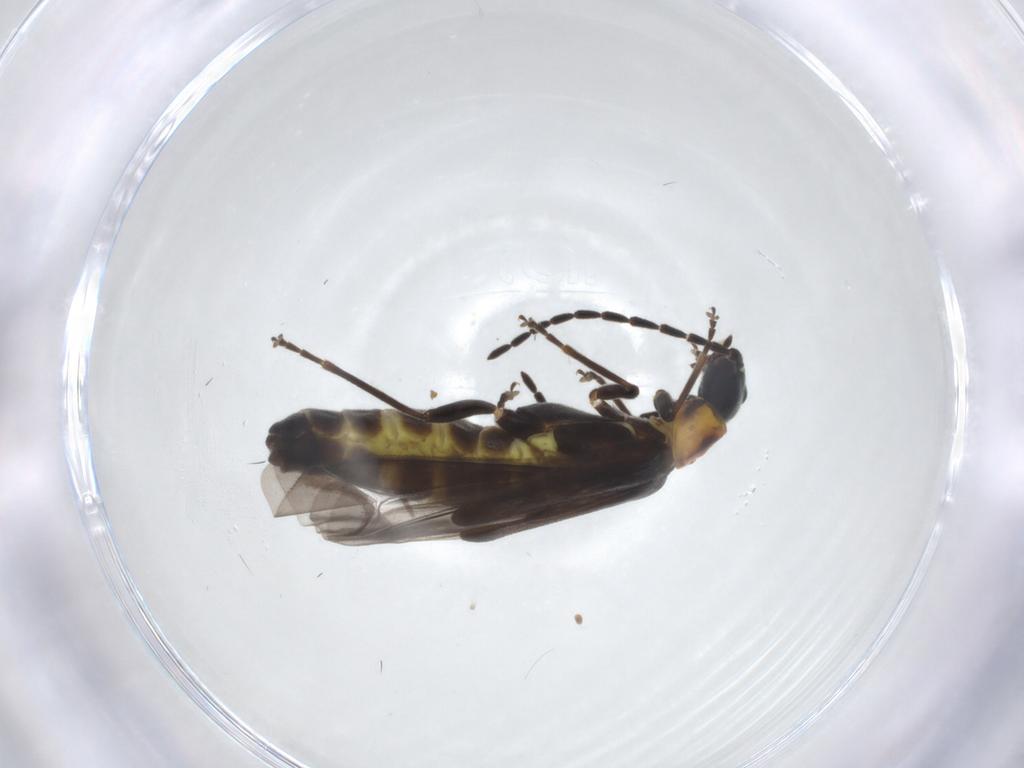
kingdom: Animalia
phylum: Arthropoda
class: Insecta
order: Coleoptera
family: Cantharidae
